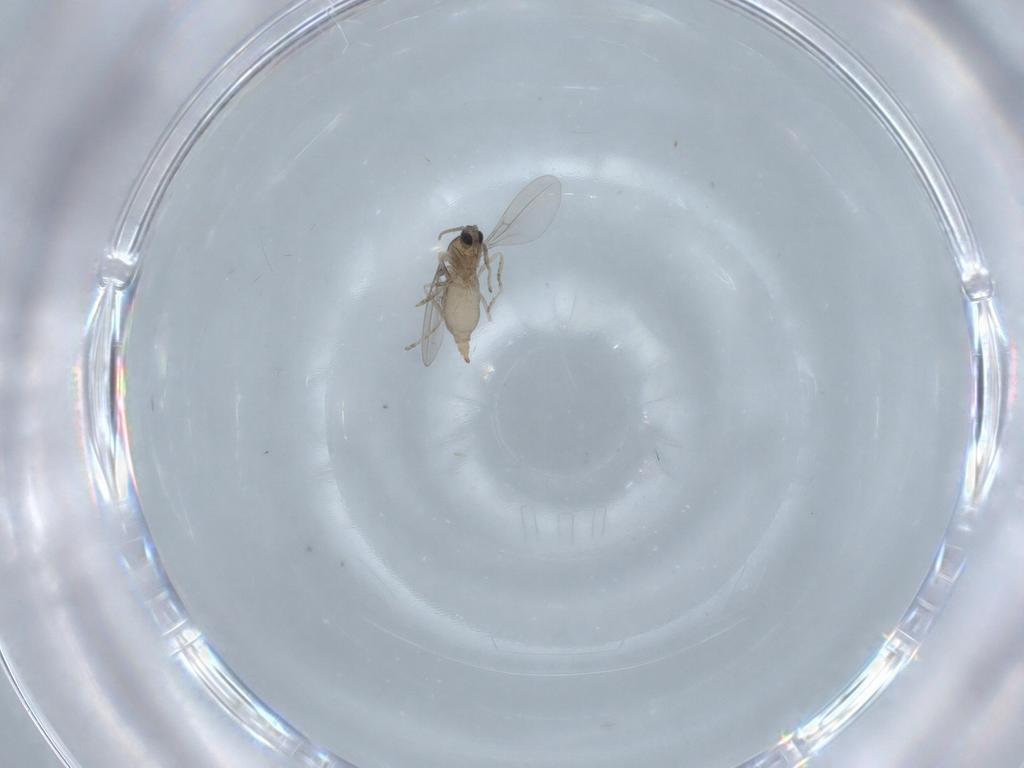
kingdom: Animalia
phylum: Arthropoda
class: Insecta
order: Diptera
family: Cecidomyiidae
